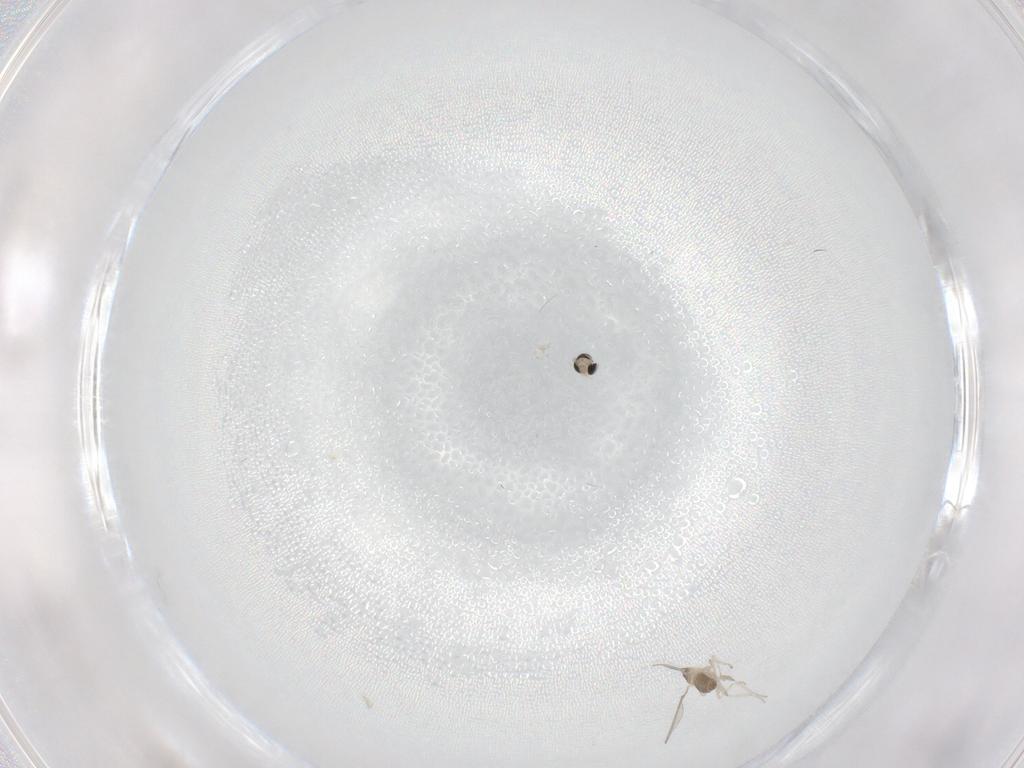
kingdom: Animalia
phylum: Arthropoda
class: Insecta
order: Diptera
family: Cecidomyiidae
